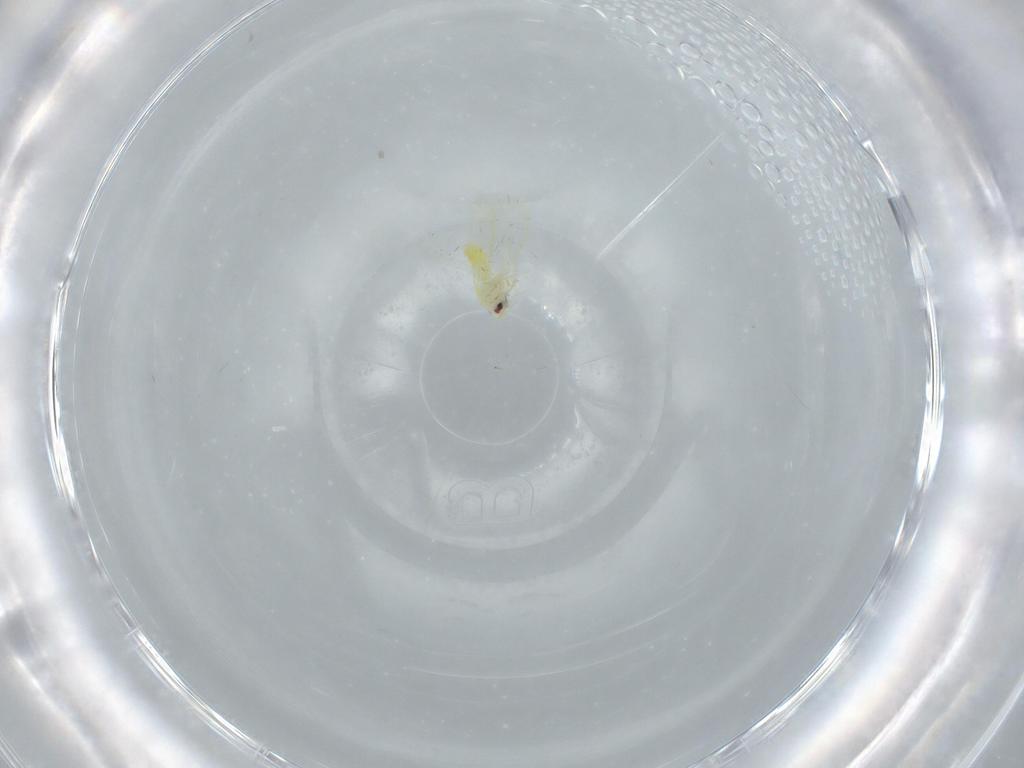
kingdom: Animalia
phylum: Arthropoda
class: Insecta
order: Hemiptera
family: Aleyrodidae
